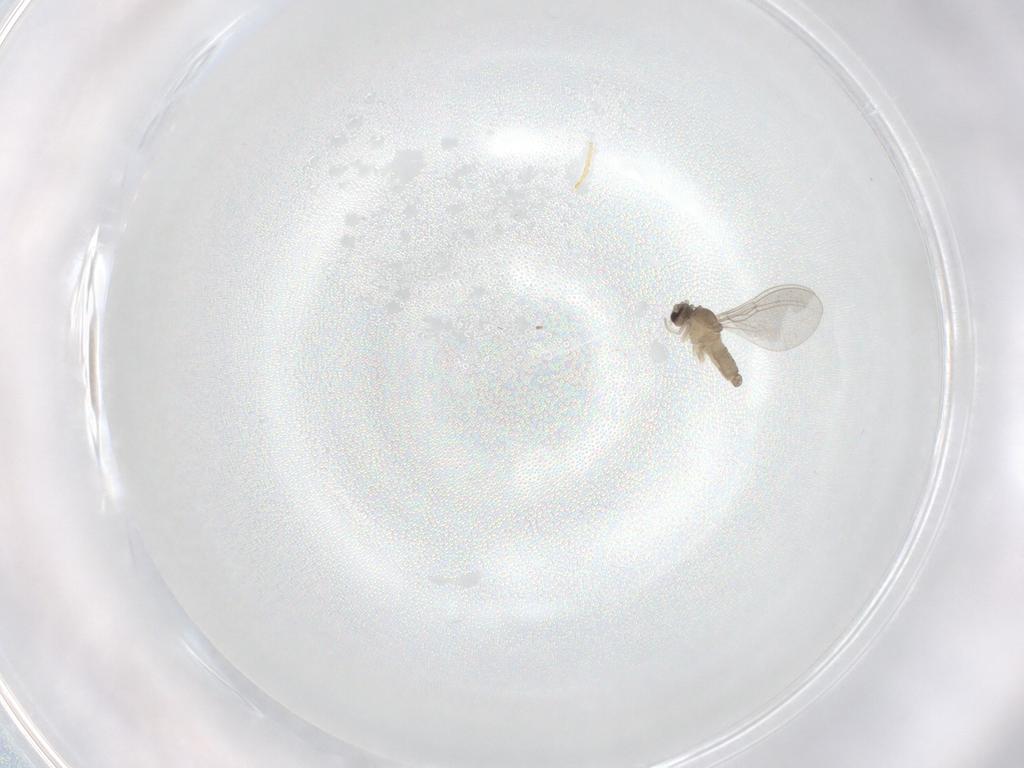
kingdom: Animalia
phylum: Arthropoda
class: Insecta
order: Diptera
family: Cecidomyiidae
